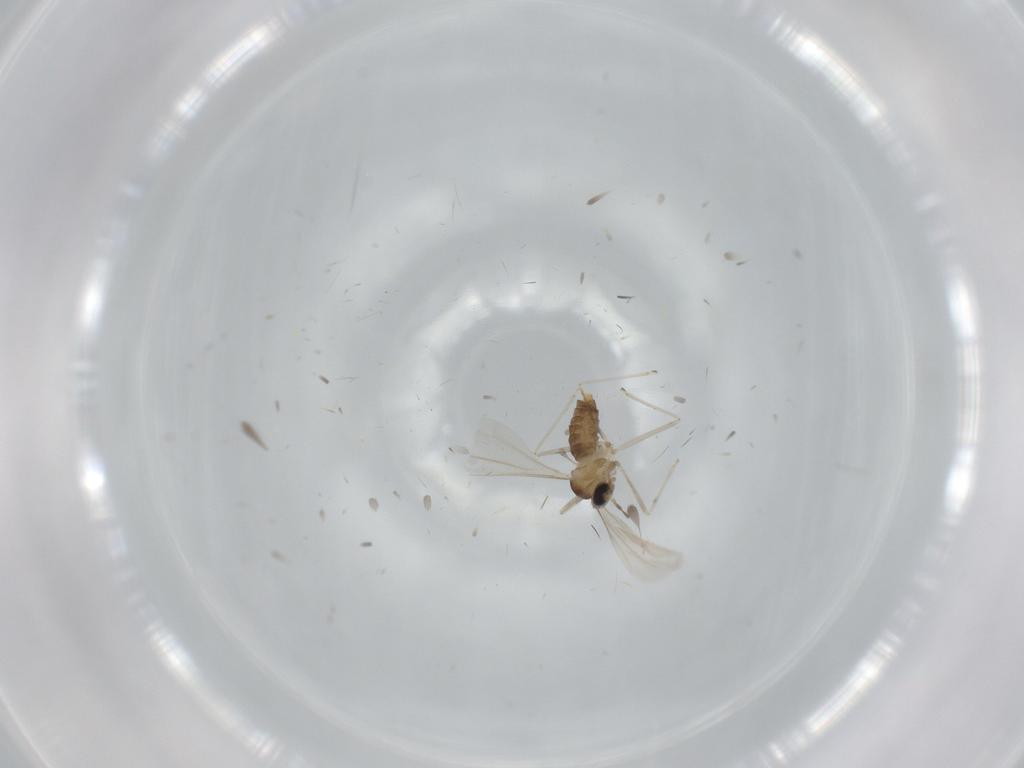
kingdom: Animalia
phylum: Arthropoda
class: Insecta
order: Diptera
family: Cecidomyiidae
